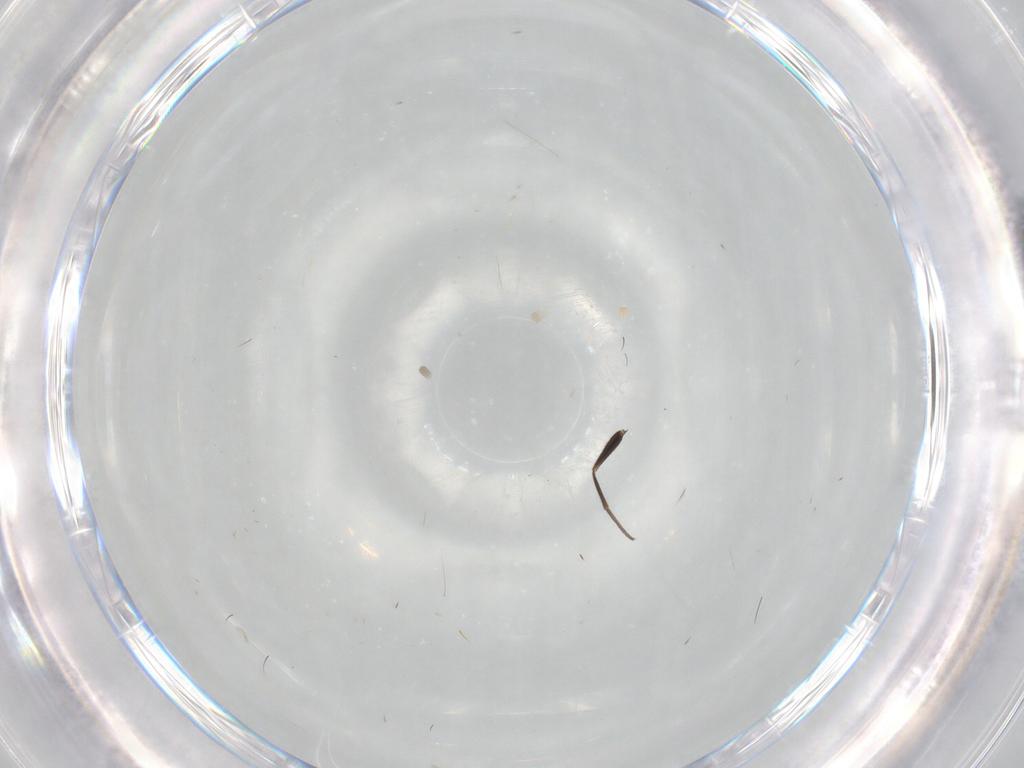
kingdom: Animalia
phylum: Arthropoda
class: Insecta
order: Diptera
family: Dolichopodidae
